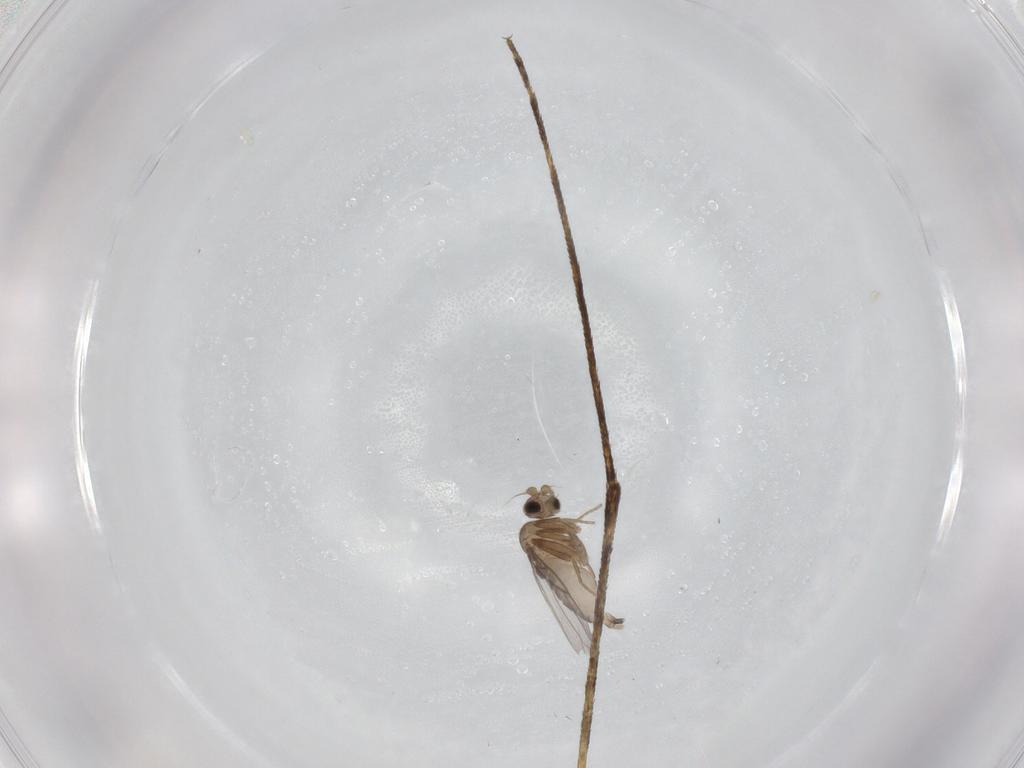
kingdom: Animalia
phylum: Arthropoda
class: Insecta
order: Diptera
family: Culicidae
